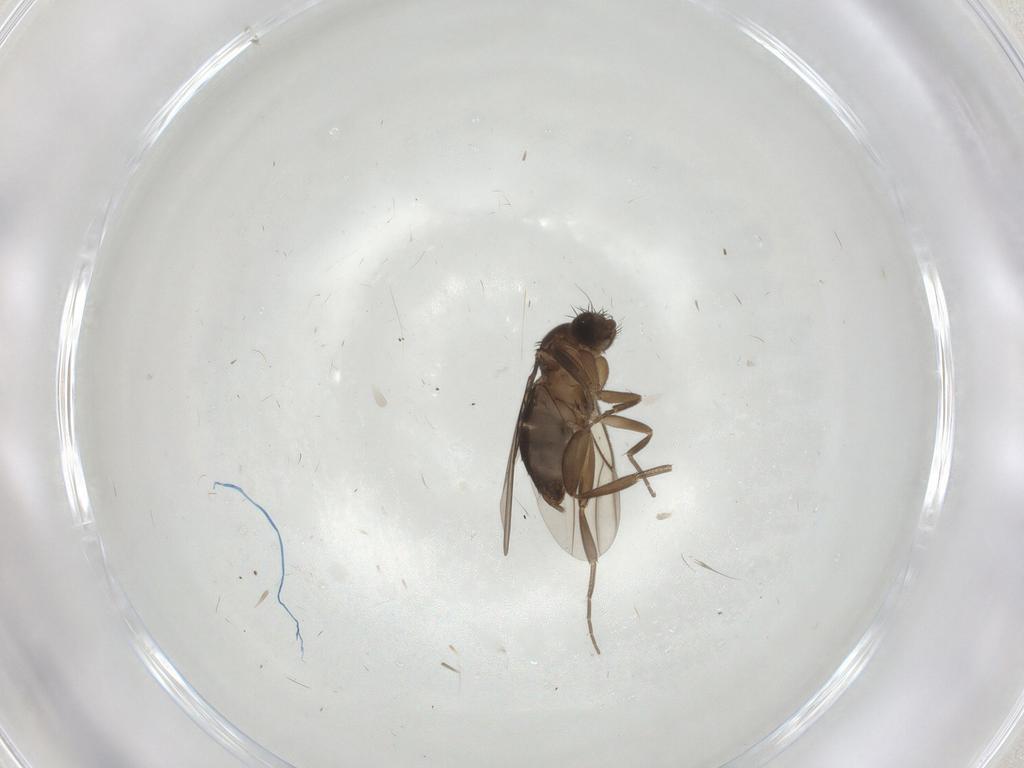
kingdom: Animalia
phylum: Arthropoda
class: Insecta
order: Diptera
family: Phoridae
